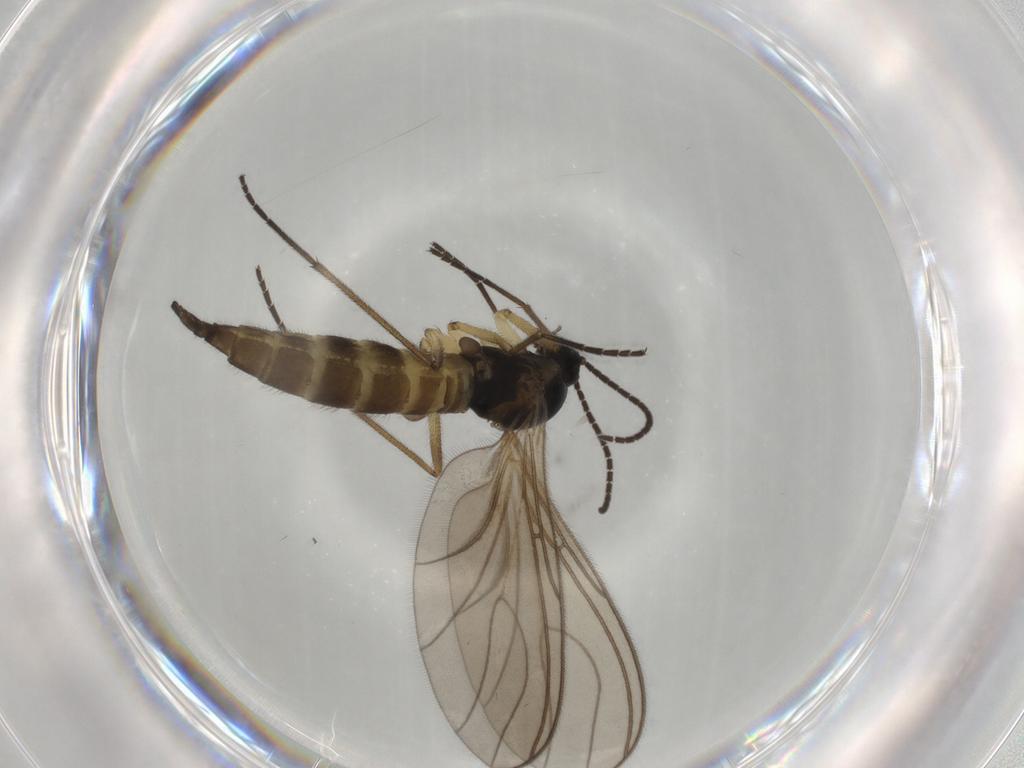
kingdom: Animalia
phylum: Arthropoda
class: Insecta
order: Diptera
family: Sciaridae
